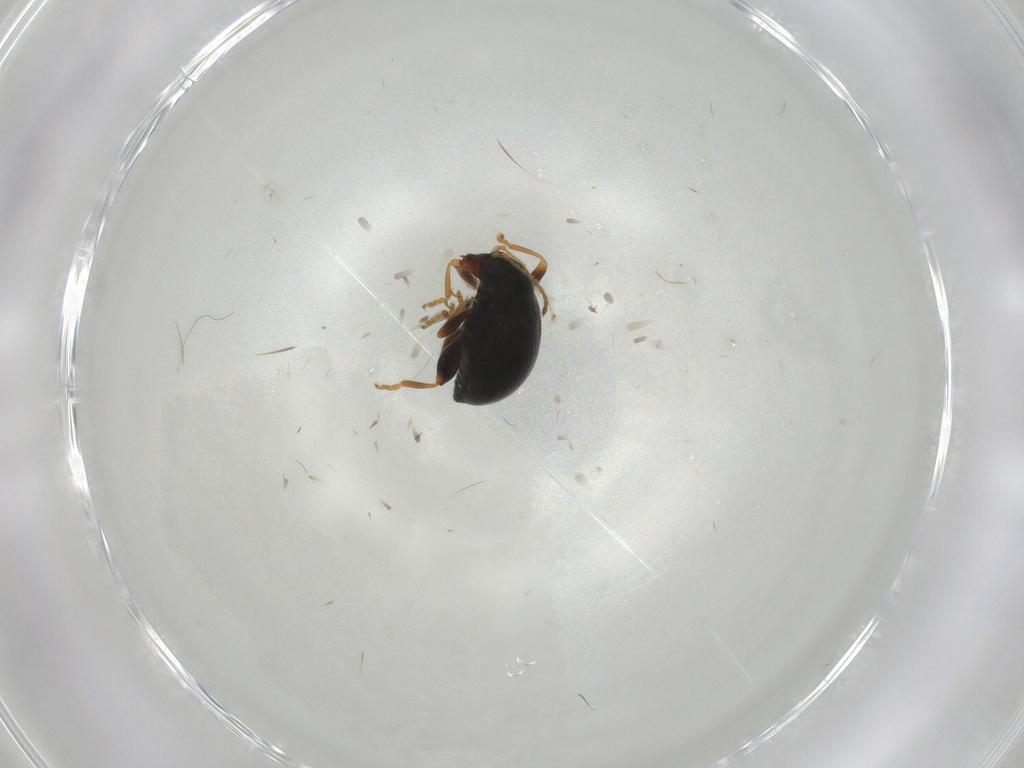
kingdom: Animalia
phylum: Arthropoda
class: Insecta
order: Coleoptera
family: Chrysomelidae
